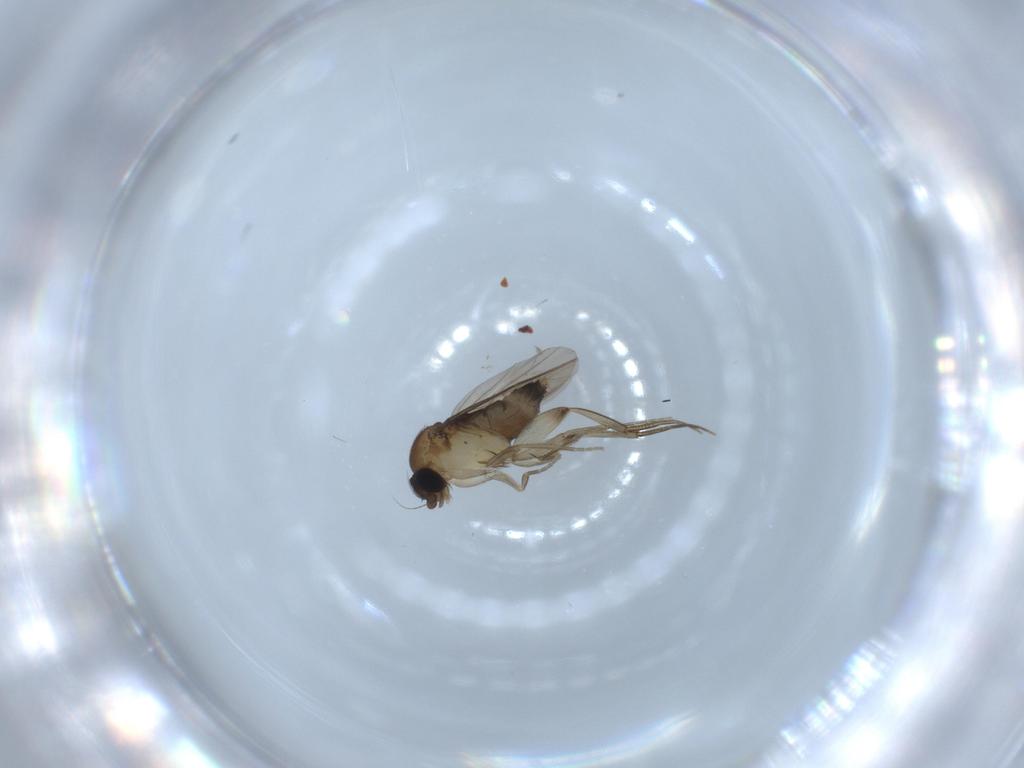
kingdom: Animalia
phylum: Arthropoda
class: Insecta
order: Diptera
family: Phoridae
